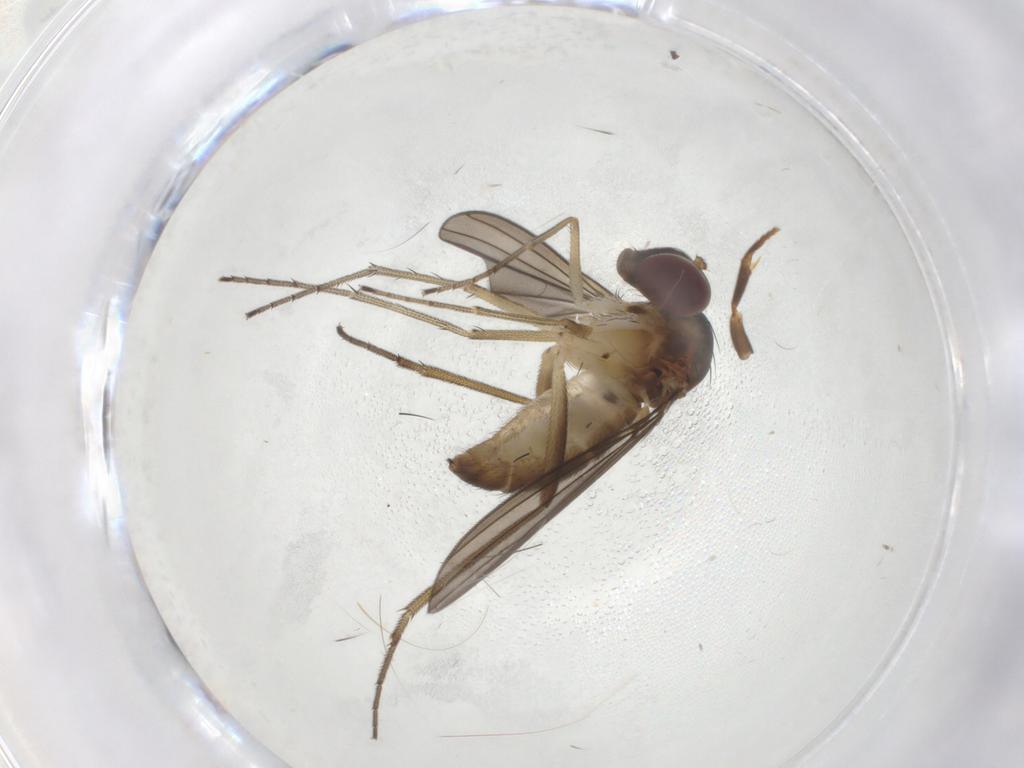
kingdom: Animalia
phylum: Arthropoda
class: Insecta
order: Diptera
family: Dolichopodidae
